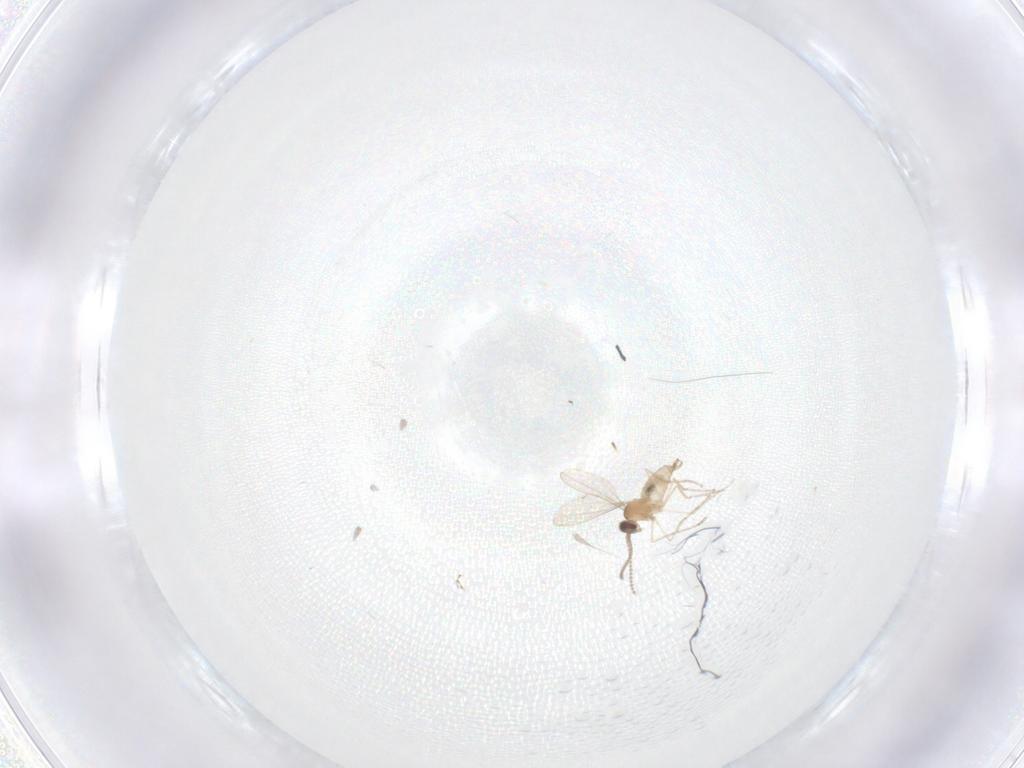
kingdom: Animalia
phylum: Arthropoda
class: Insecta
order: Diptera
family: Cecidomyiidae
